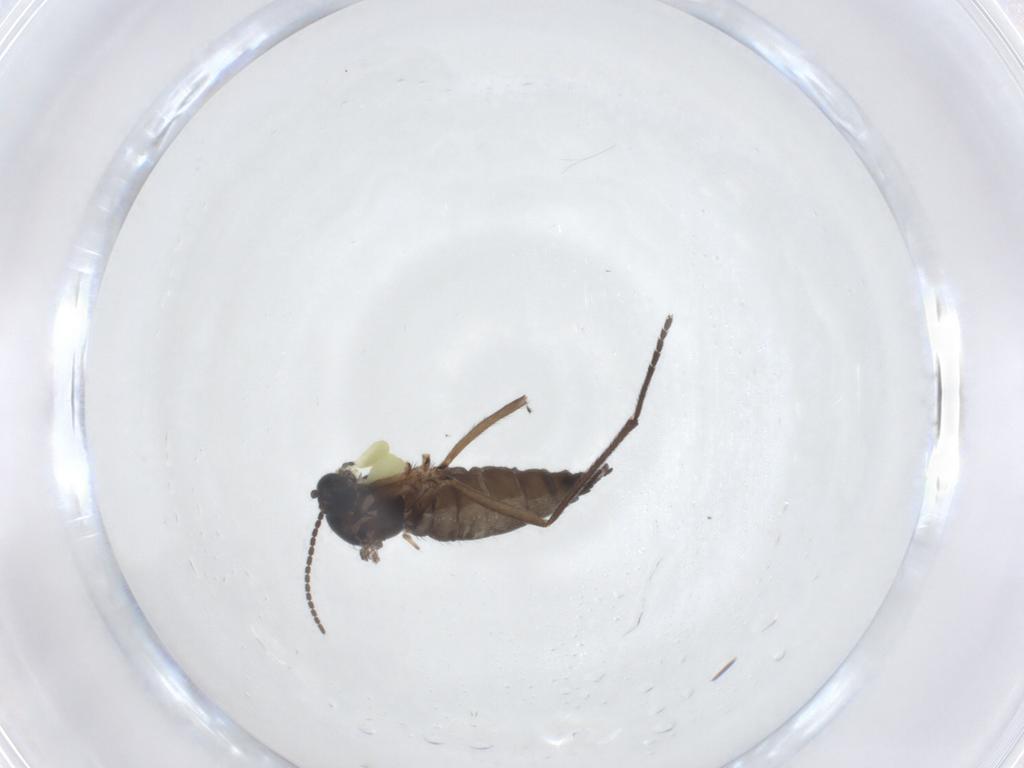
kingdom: Animalia
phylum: Arthropoda
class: Insecta
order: Diptera
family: Sciaridae
